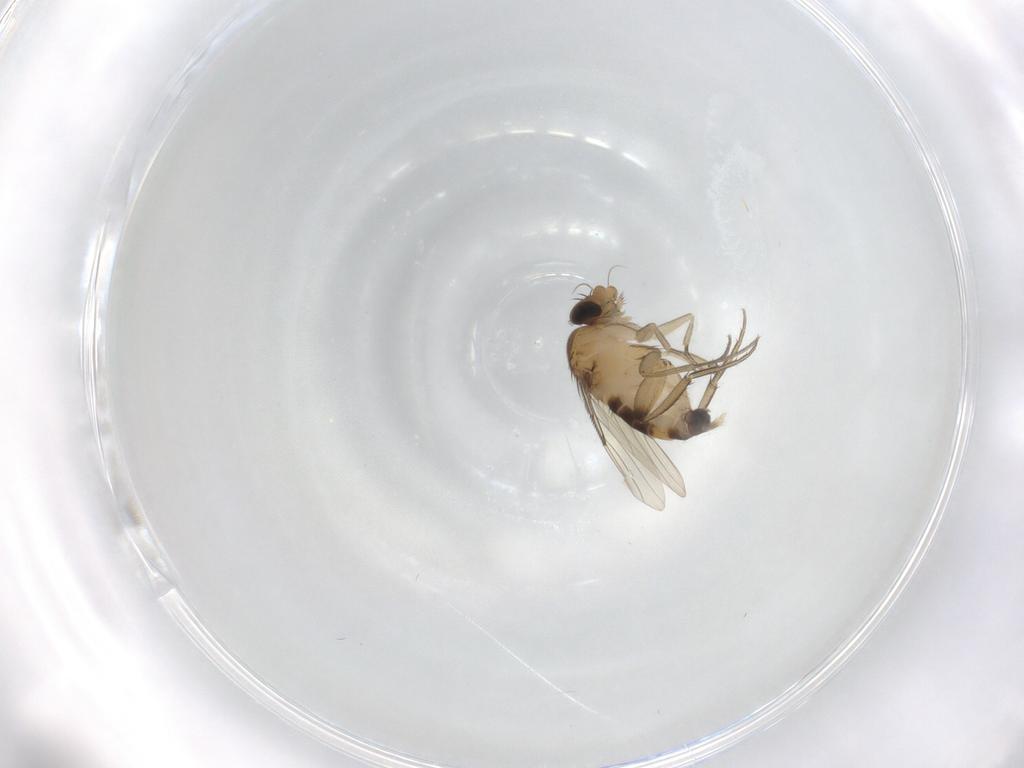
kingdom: Animalia
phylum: Arthropoda
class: Insecta
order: Diptera
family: Phoridae
